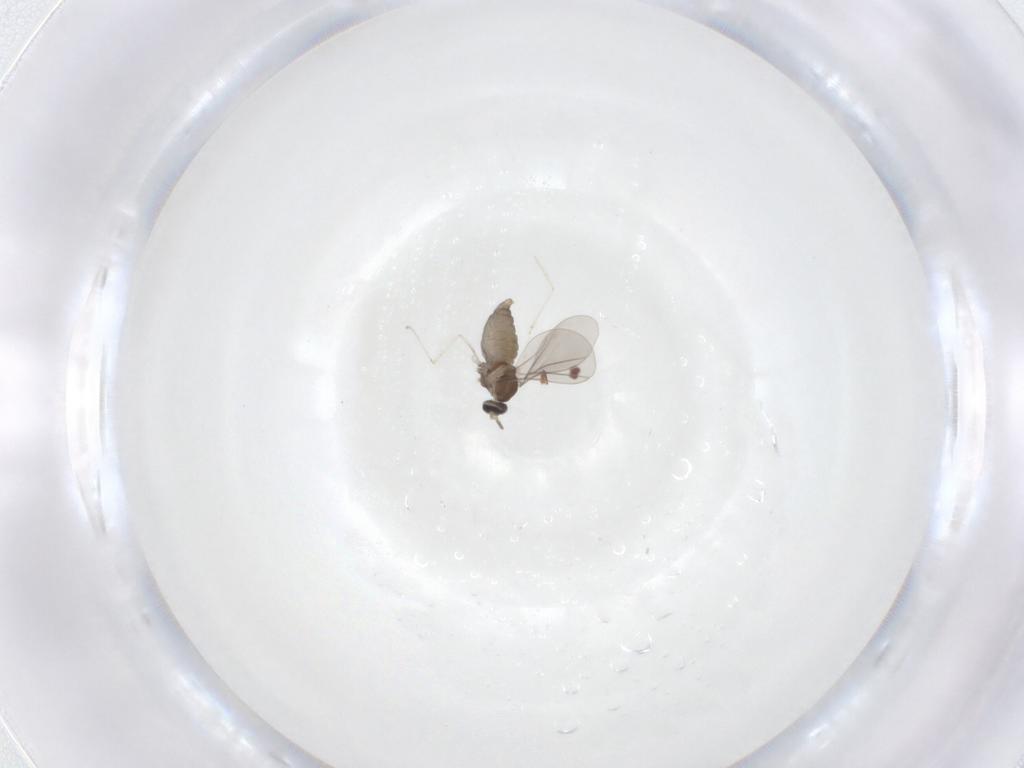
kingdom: Animalia
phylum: Arthropoda
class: Insecta
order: Diptera
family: Cecidomyiidae
